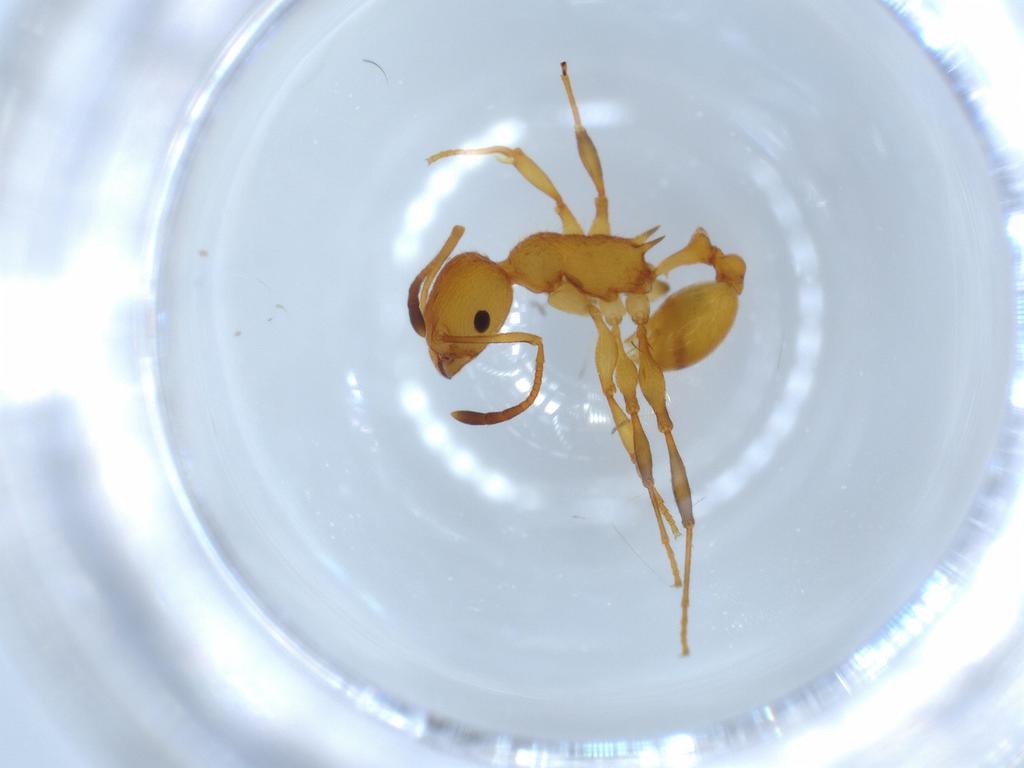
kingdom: Animalia
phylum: Arthropoda
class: Insecta
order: Hymenoptera
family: Formicidae
